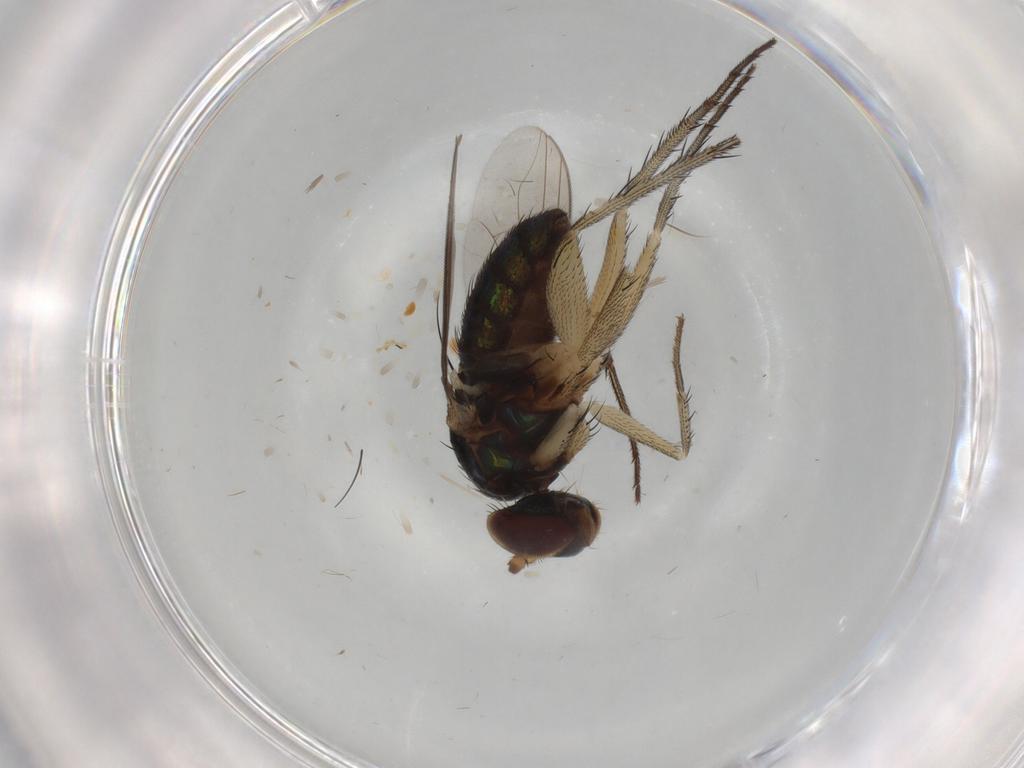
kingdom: Animalia
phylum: Arthropoda
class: Insecta
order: Diptera
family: Dolichopodidae
